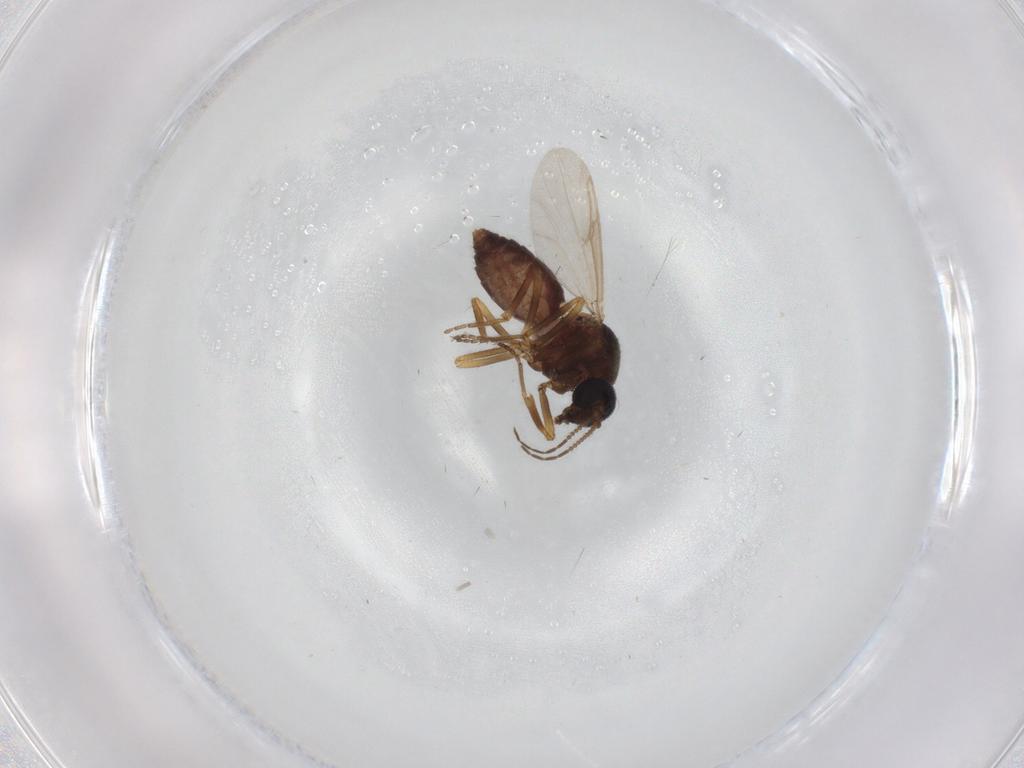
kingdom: Animalia
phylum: Arthropoda
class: Insecta
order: Diptera
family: Ceratopogonidae
